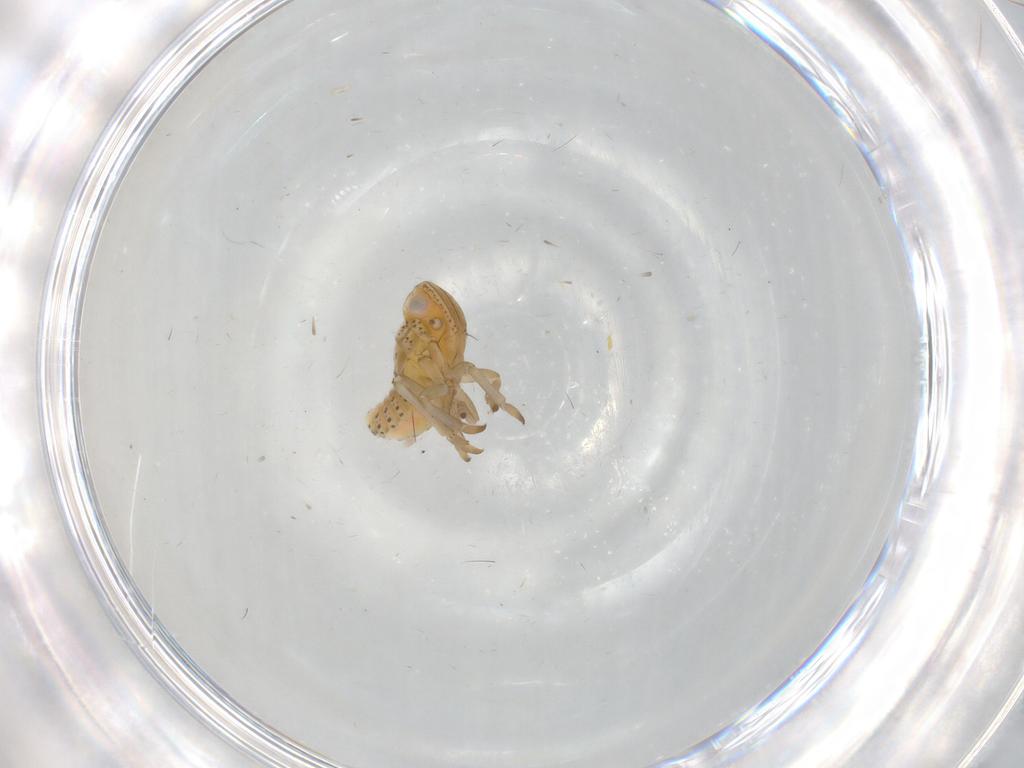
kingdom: Animalia
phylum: Arthropoda
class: Insecta
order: Hemiptera
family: Tropiduchidae
